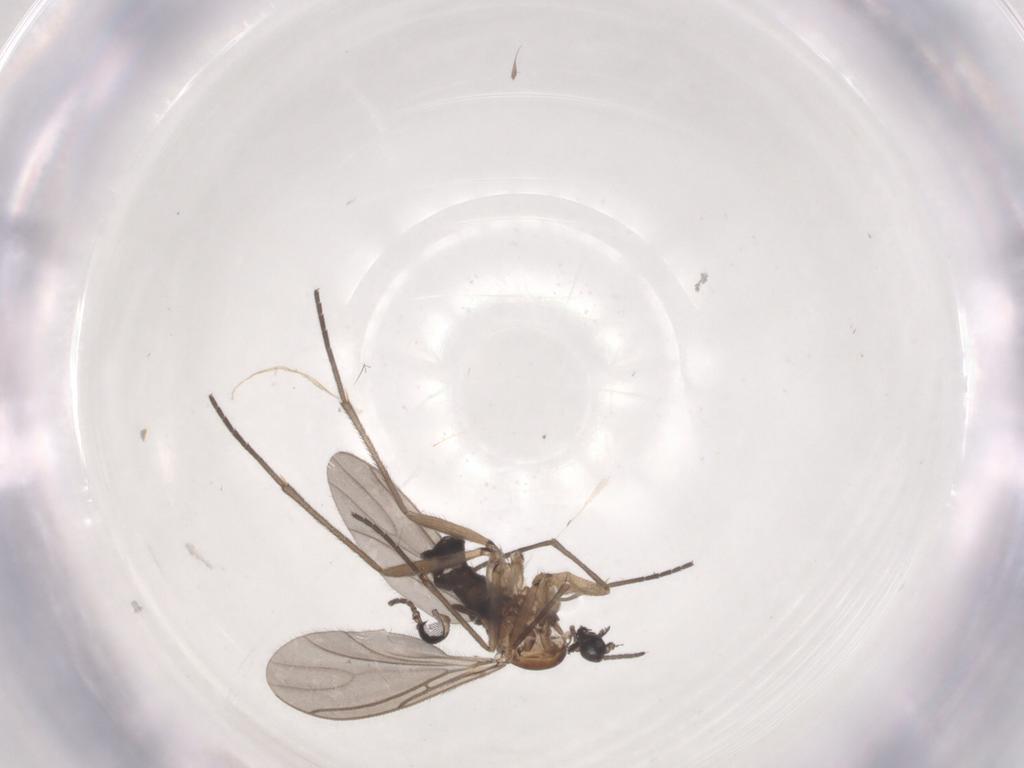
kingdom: Animalia
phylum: Arthropoda
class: Insecta
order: Diptera
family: Sciaridae
